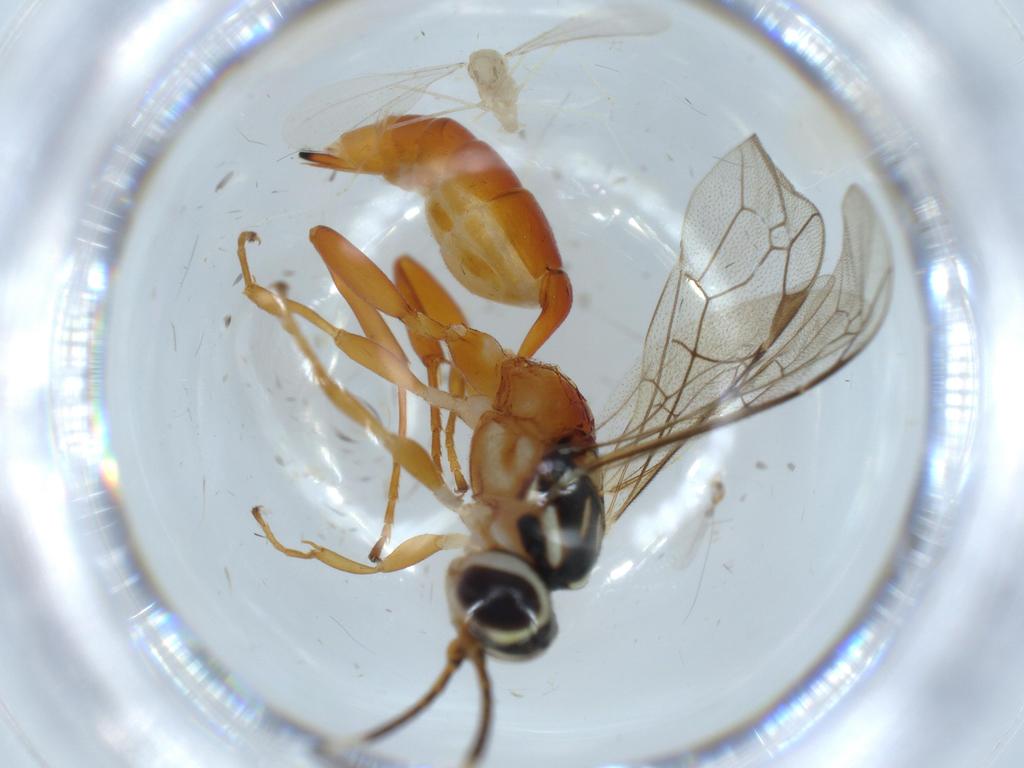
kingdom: Animalia
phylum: Arthropoda
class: Insecta
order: Diptera
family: Cecidomyiidae
